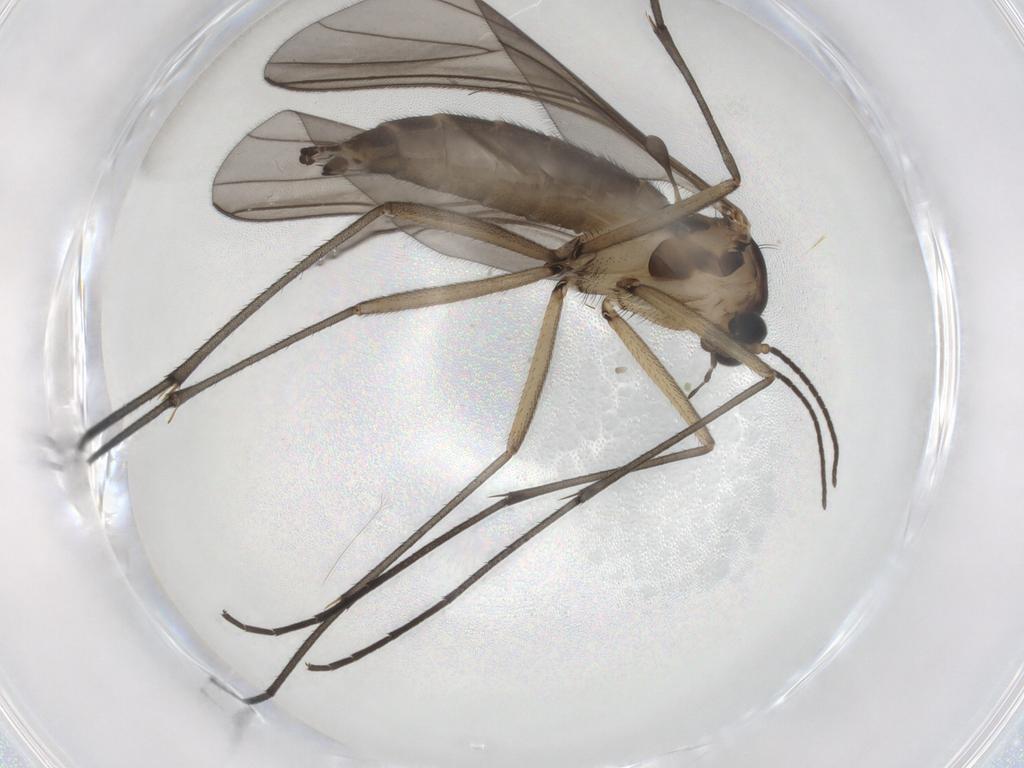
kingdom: Animalia
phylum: Arthropoda
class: Insecta
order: Diptera
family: Sciaridae
